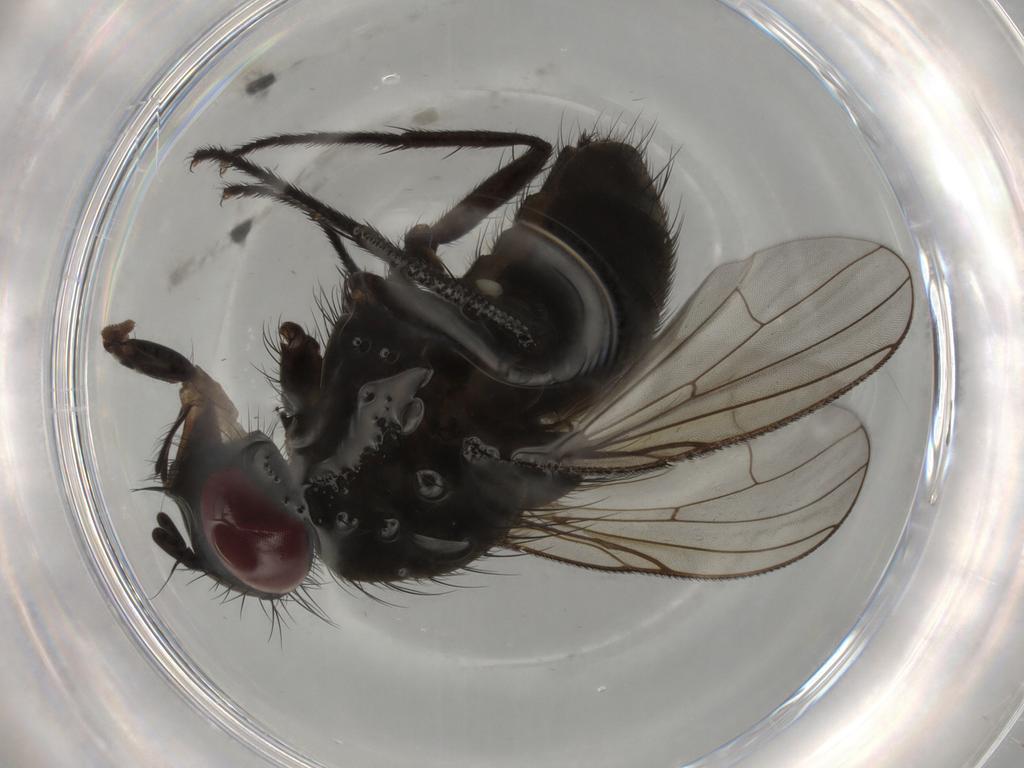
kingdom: Animalia
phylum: Arthropoda
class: Insecta
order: Diptera
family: Muscidae
